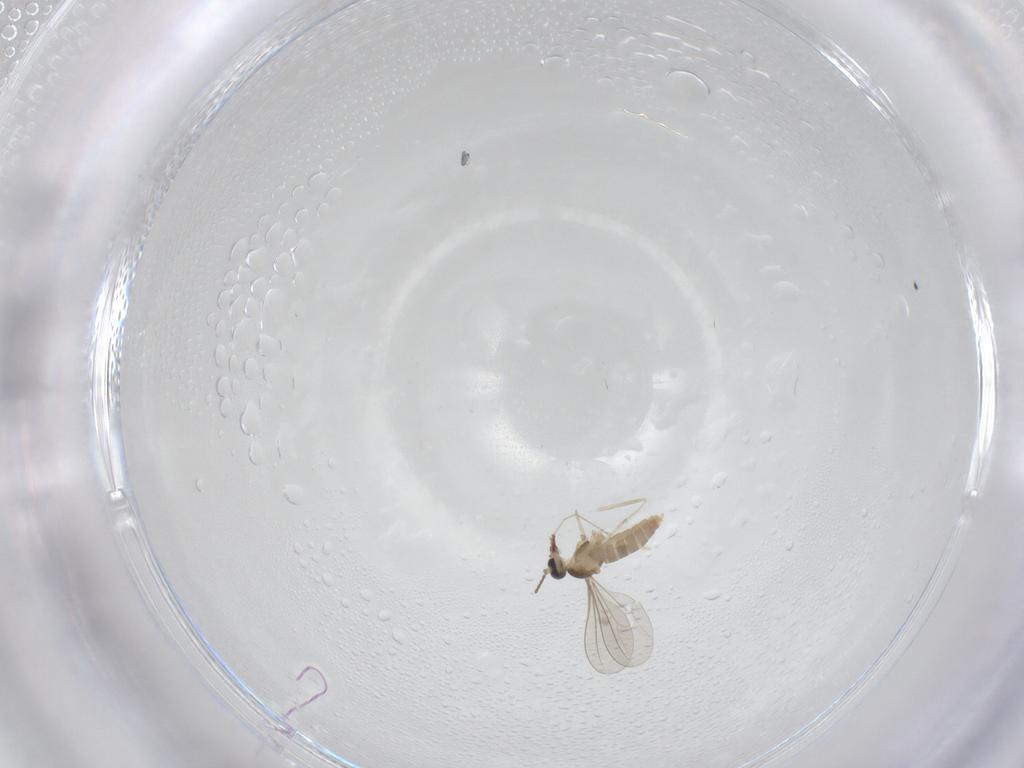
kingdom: Animalia
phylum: Arthropoda
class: Insecta
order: Diptera
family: Cecidomyiidae
